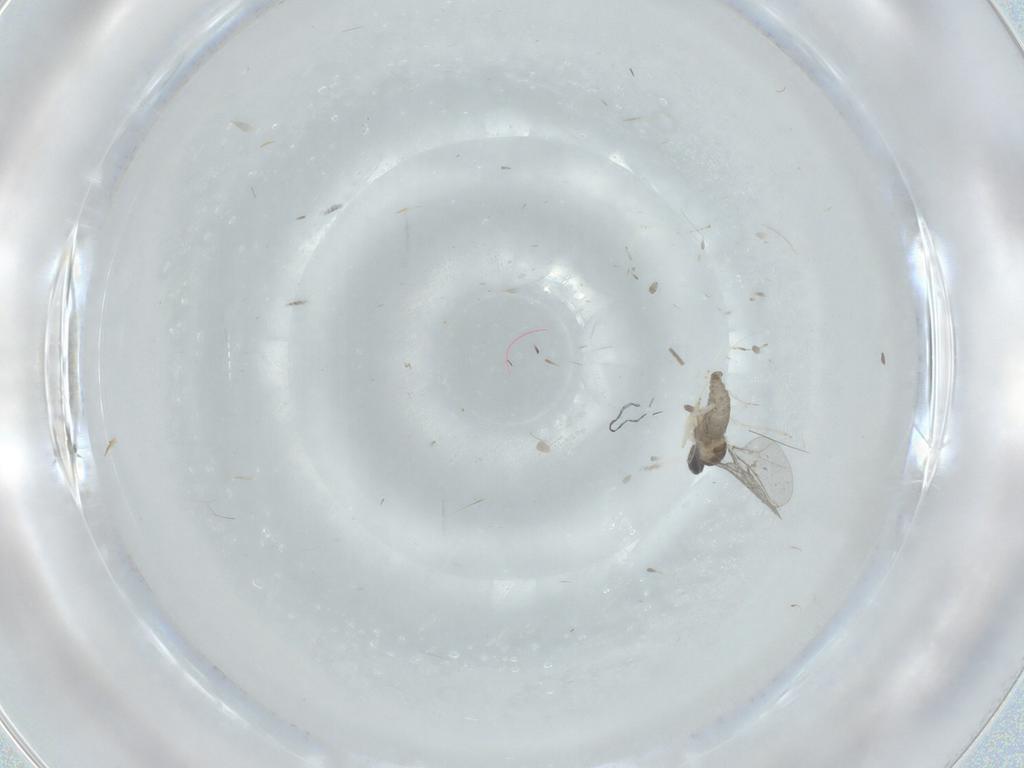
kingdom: Animalia
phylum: Arthropoda
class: Insecta
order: Diptera
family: Cecidomyiidae
